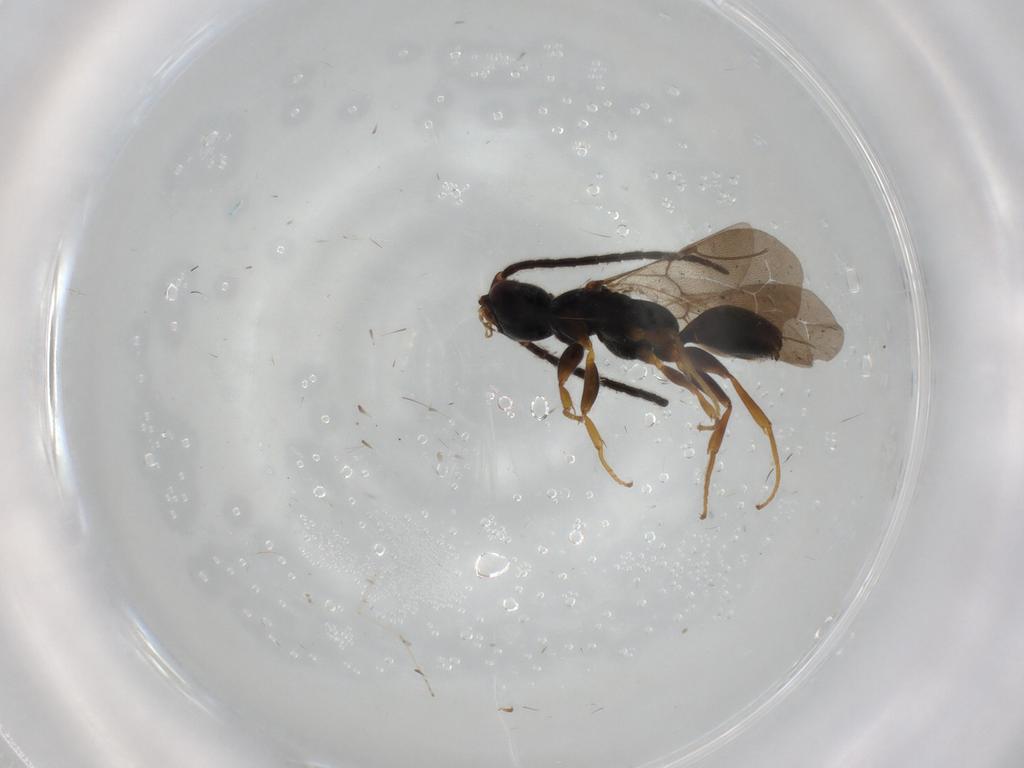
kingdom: Animalia
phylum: Arthropoda
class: Insecta
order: Hymenoptera
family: Bethylidae
